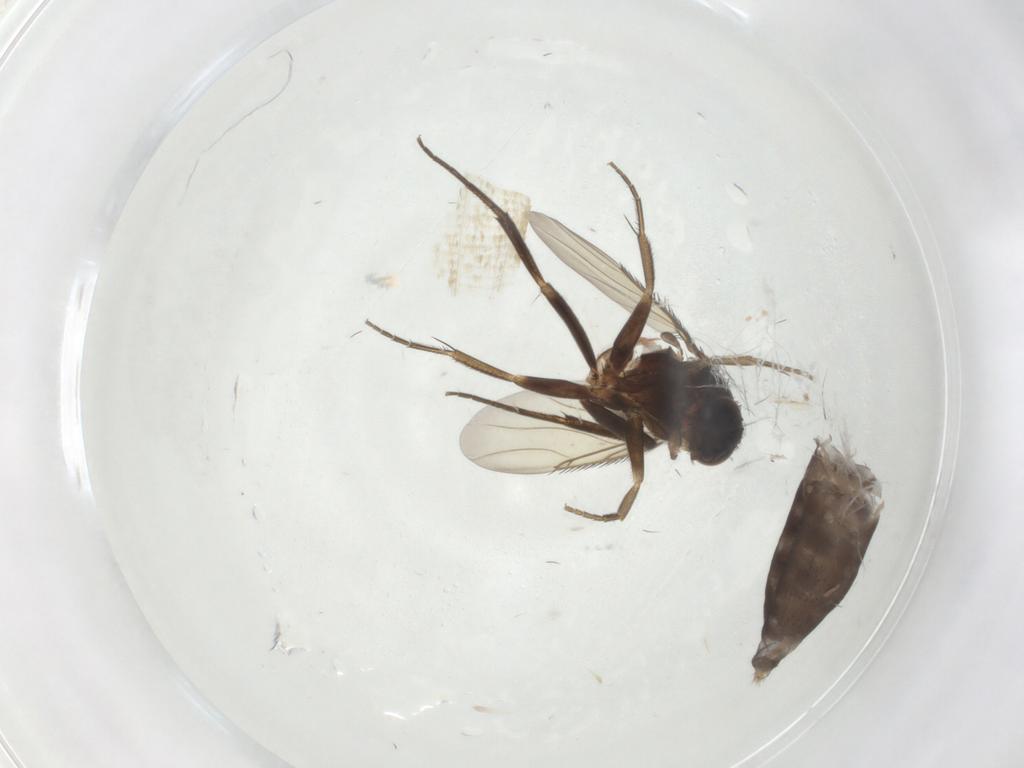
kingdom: Animalia
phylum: Arthropoda
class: Insecta
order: Diptera
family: Phoridae
